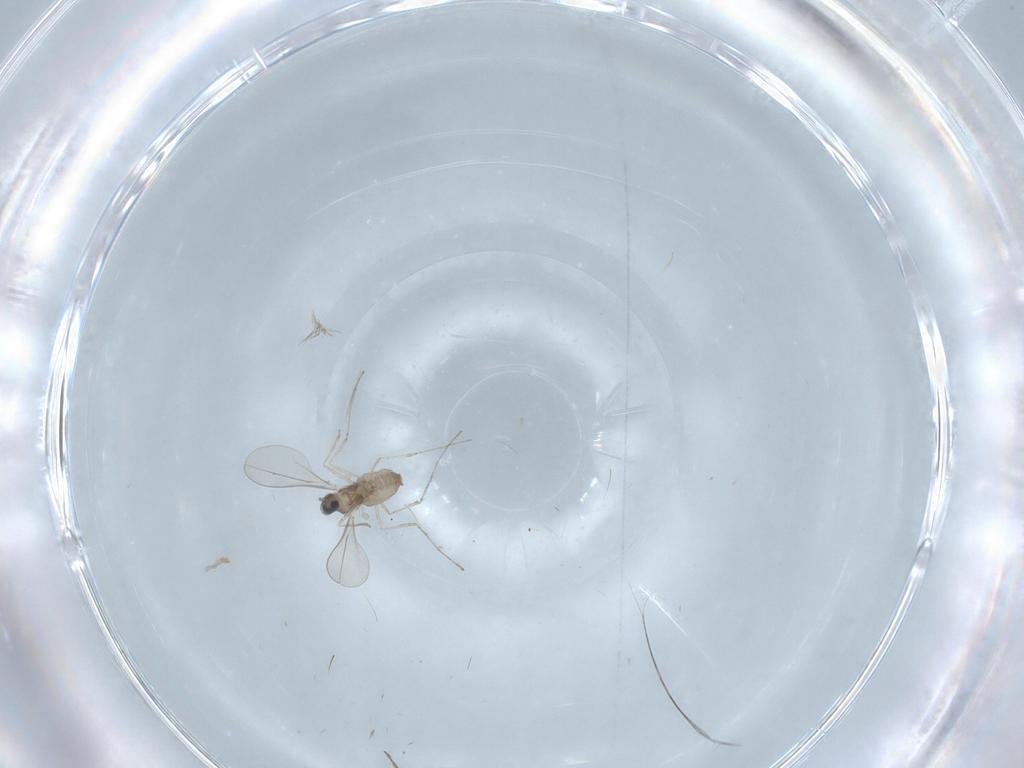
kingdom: Animalia
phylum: Arthropoda
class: Insecta
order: Diptera
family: Chironomidae
